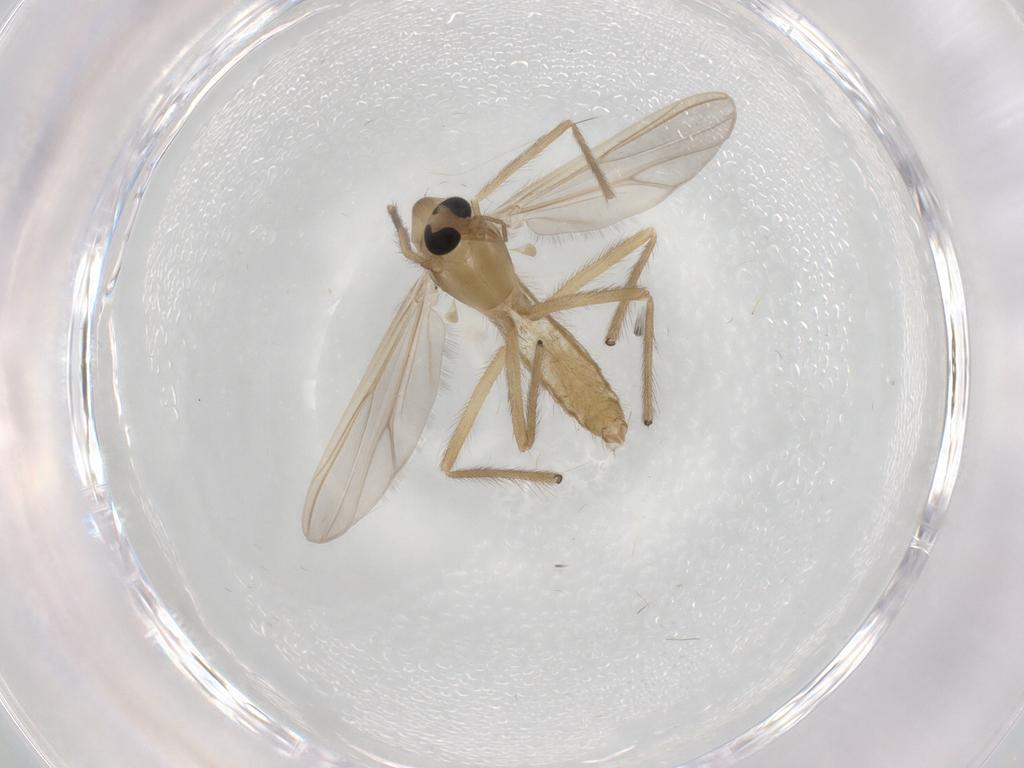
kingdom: Animalia
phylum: Arthropoda
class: Insecta
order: Diptera
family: Chironomidae
